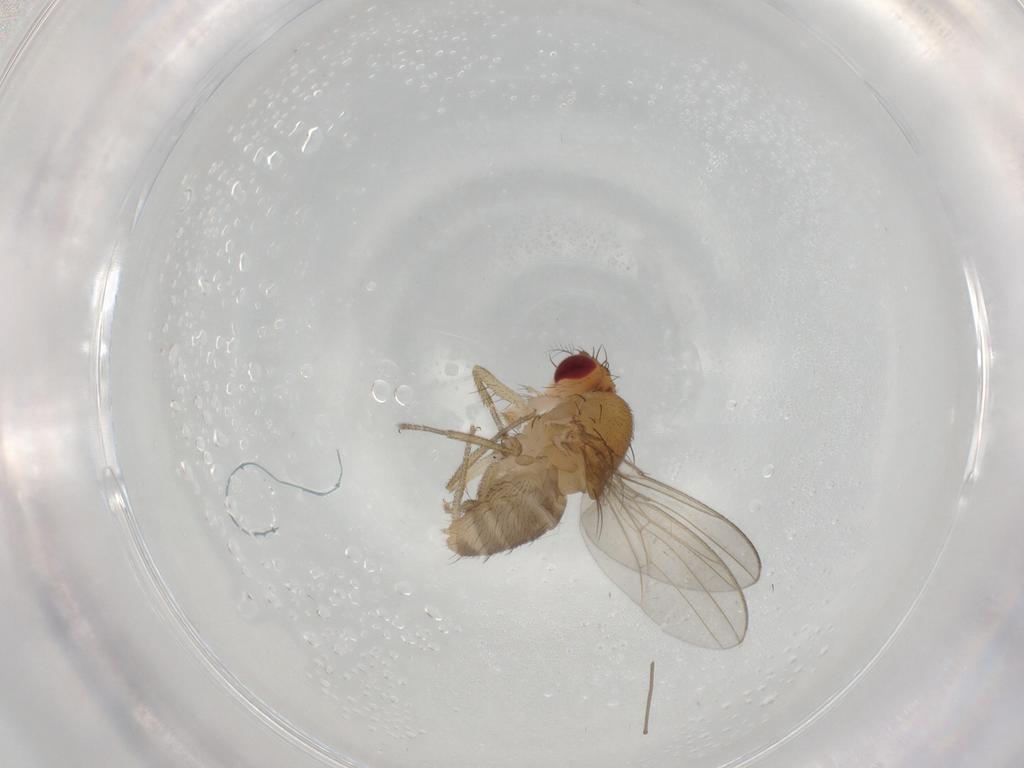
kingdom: Animalia
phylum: Arthropoda
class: Insecta
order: Diptera
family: Drosophilidae
